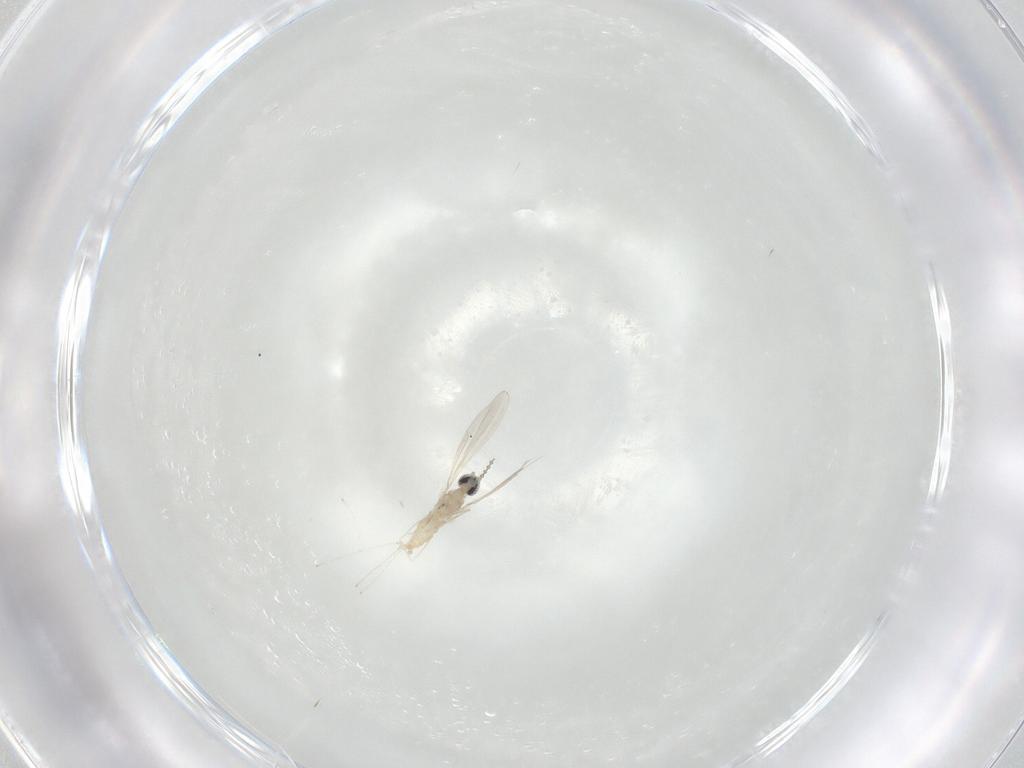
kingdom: Animalia
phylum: Arthropoda
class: Insecta
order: Diptera
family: Cecidomyiidae
